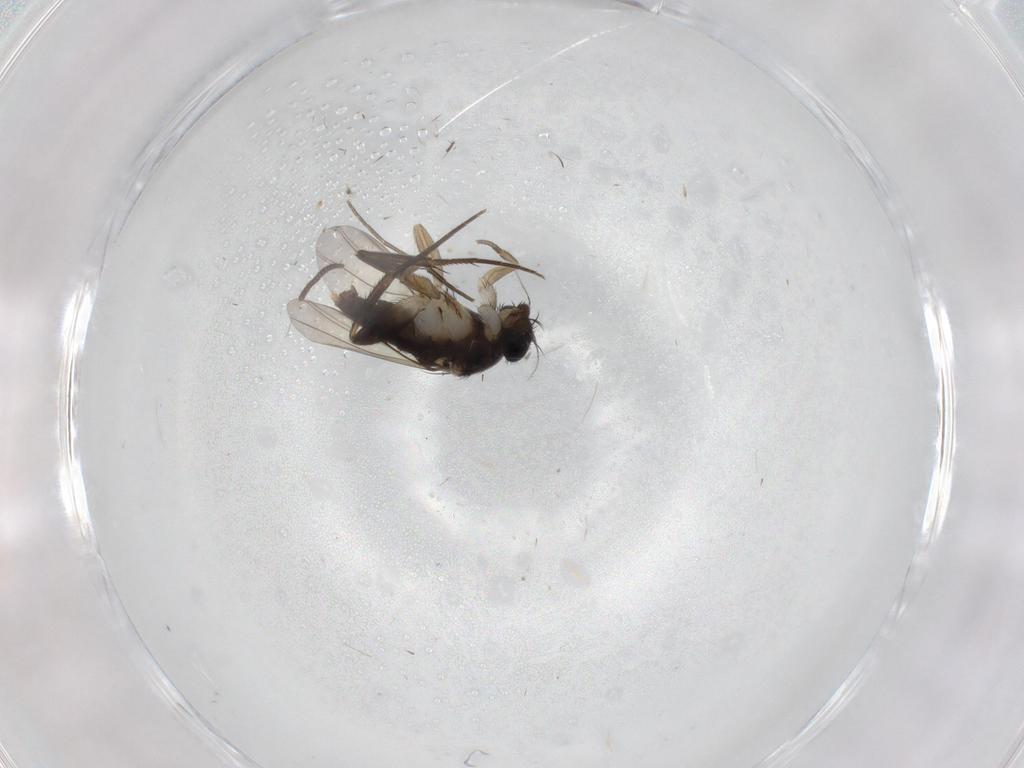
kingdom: Animalia
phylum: Arthropoda
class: Insecta
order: Diptera
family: Phoridae
